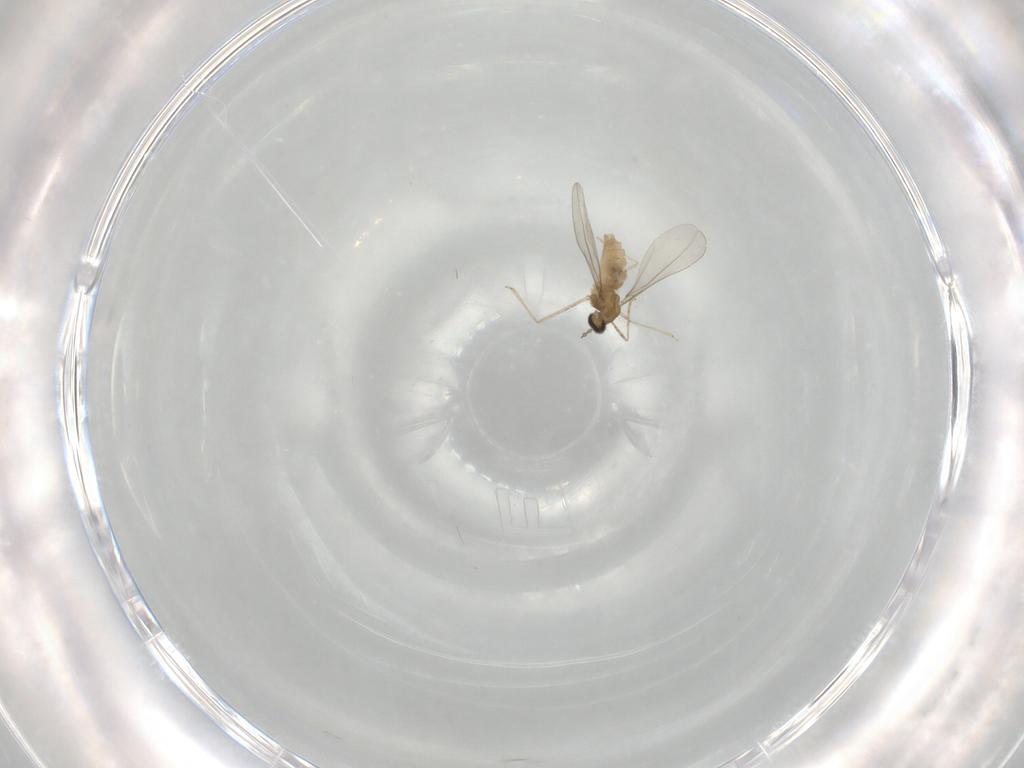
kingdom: Animalia
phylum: Arthropoda
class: Insecta
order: Diptera
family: Cecidomyiidae
